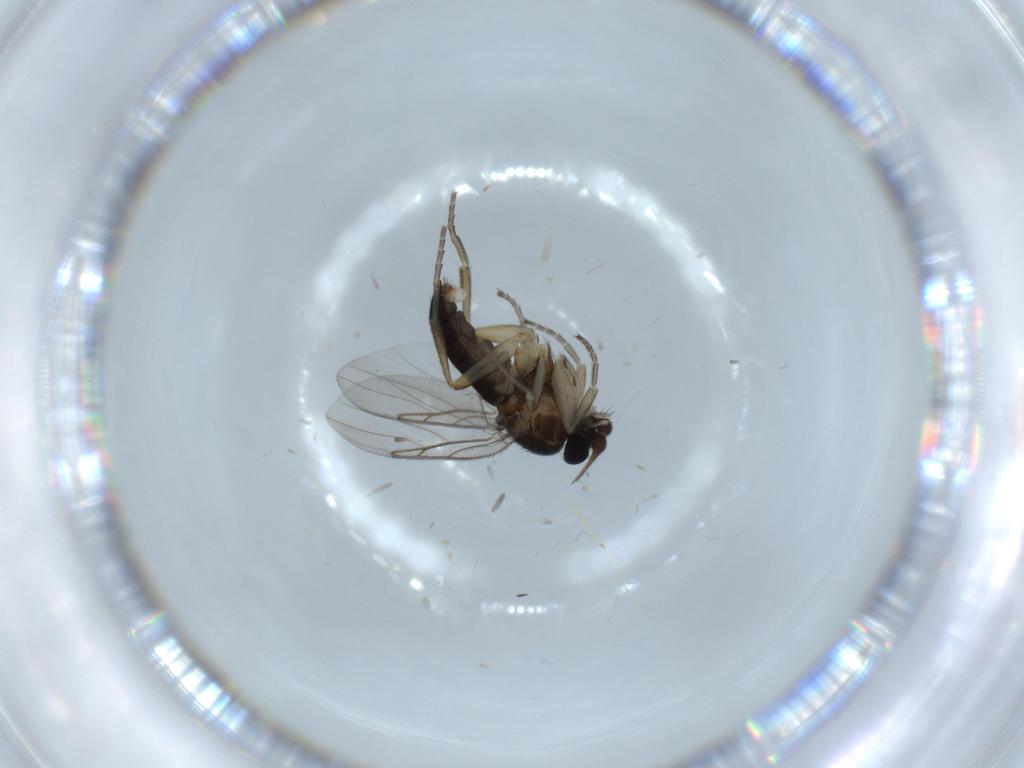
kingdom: Animalia
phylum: Arthropoda
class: Insecta
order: Diptera
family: Phoridae
